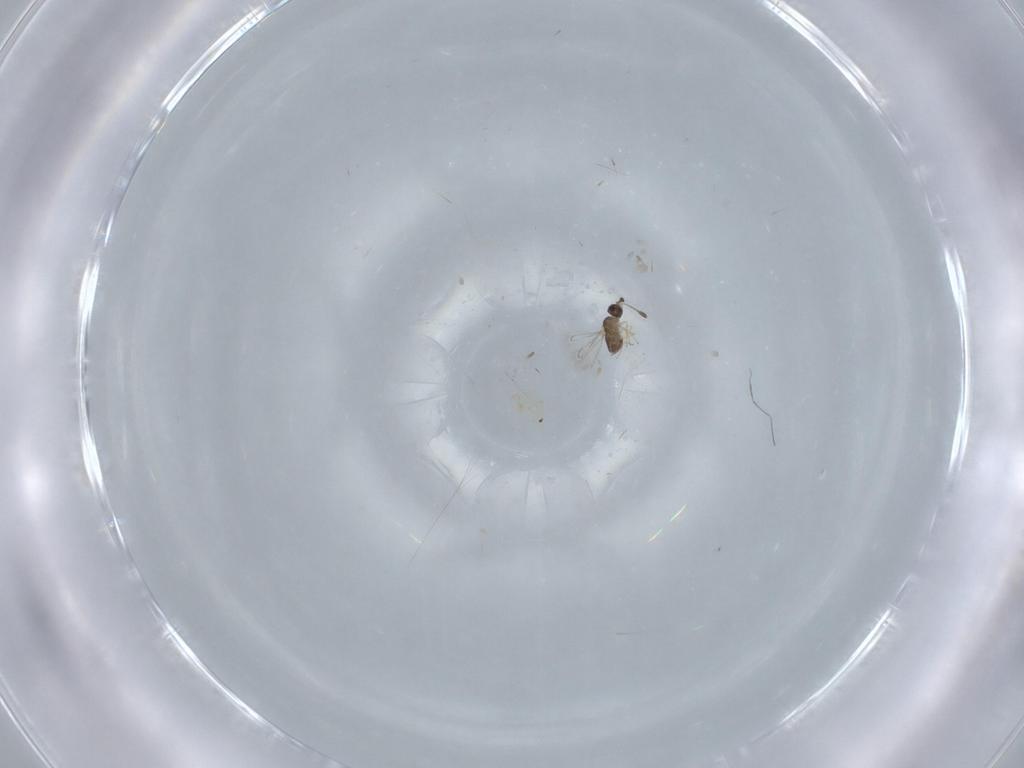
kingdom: Animalia
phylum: Arthropoda
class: Insecta
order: Hymenoptera
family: Mymaridae
